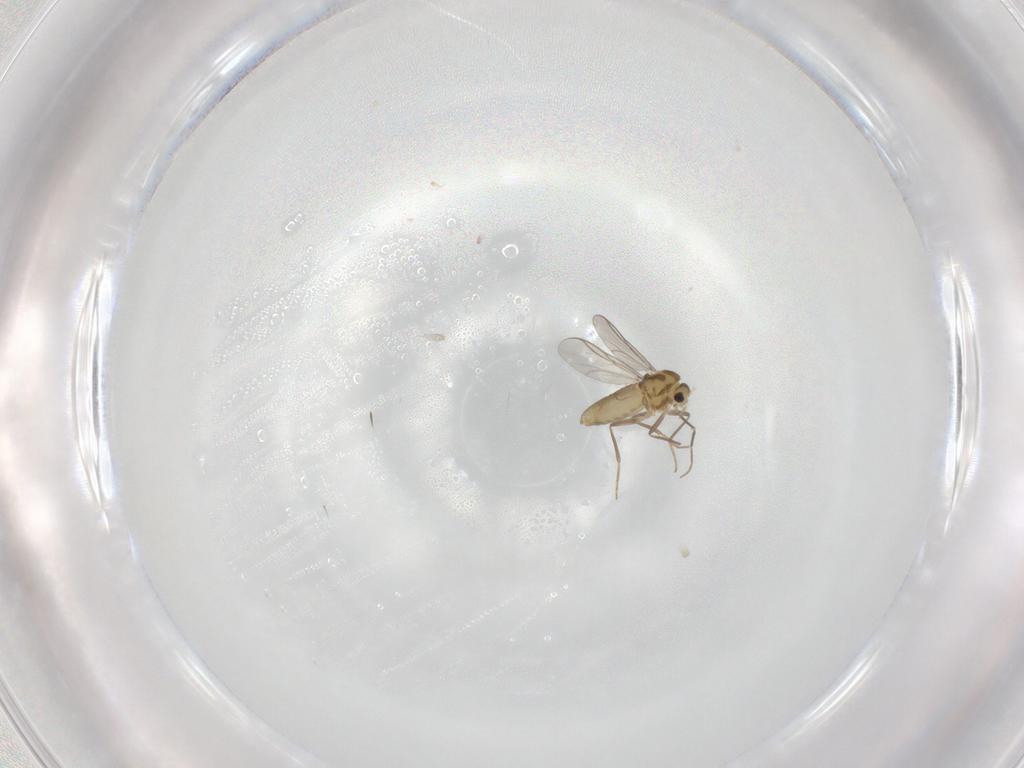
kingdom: Animalia
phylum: Arthropoda
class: Insecta
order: Diptera
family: Chironomidae
